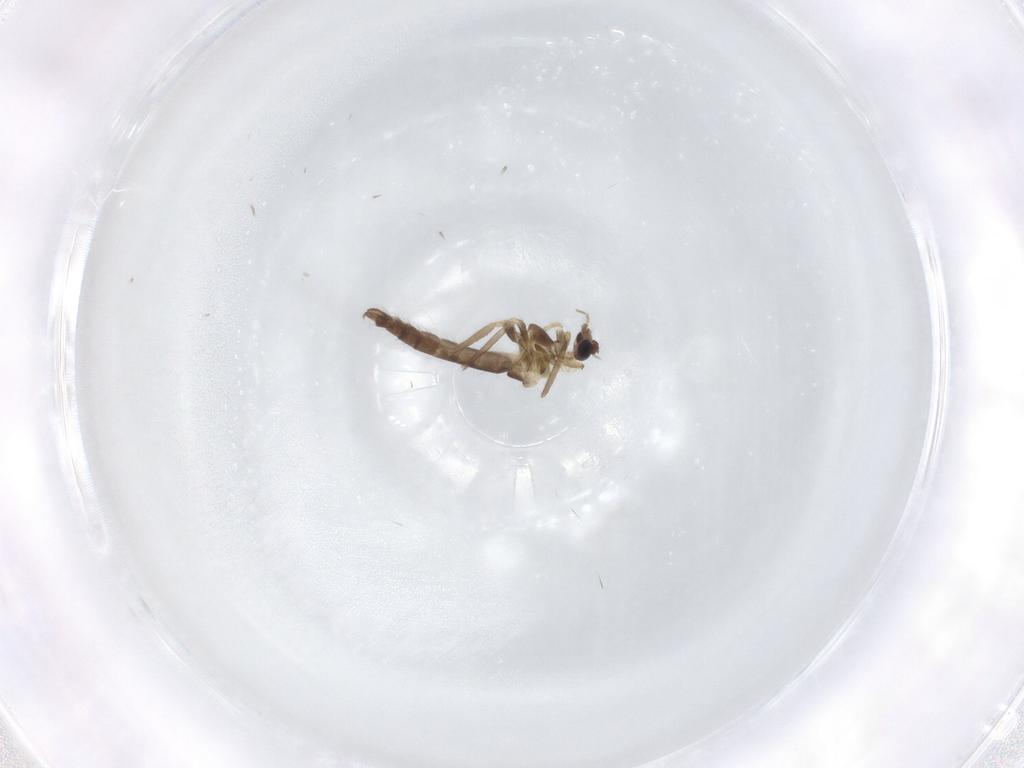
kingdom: Animalia
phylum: Arthropoda
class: Insecta
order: Diptera
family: Chironomidae
